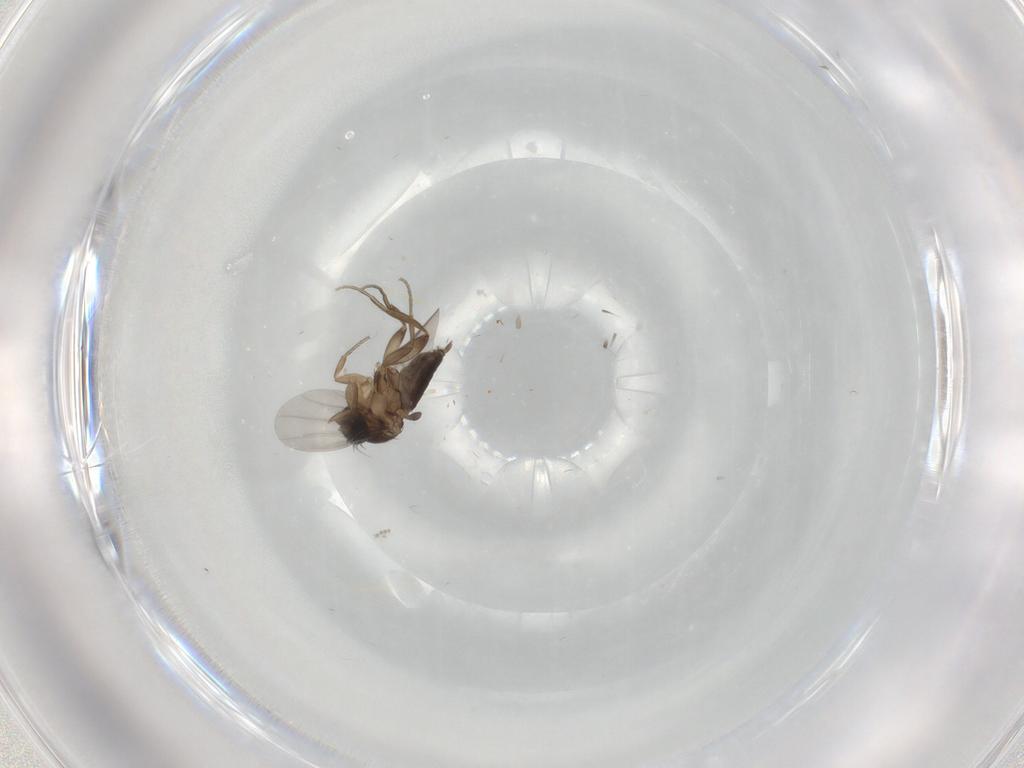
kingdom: Animalia
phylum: Arthropoda
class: Insecta
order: Diptera
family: Phoridae
